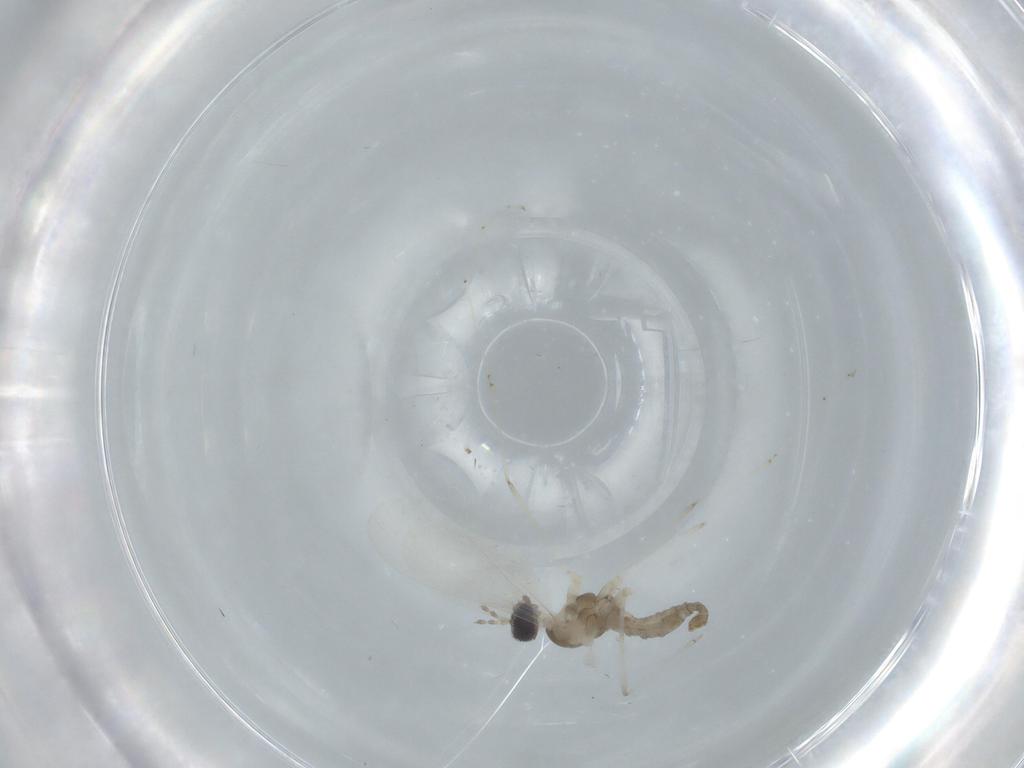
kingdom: Animalia
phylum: Arthropoda
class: Insecta
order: Diptera
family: Cecidomyiidae
